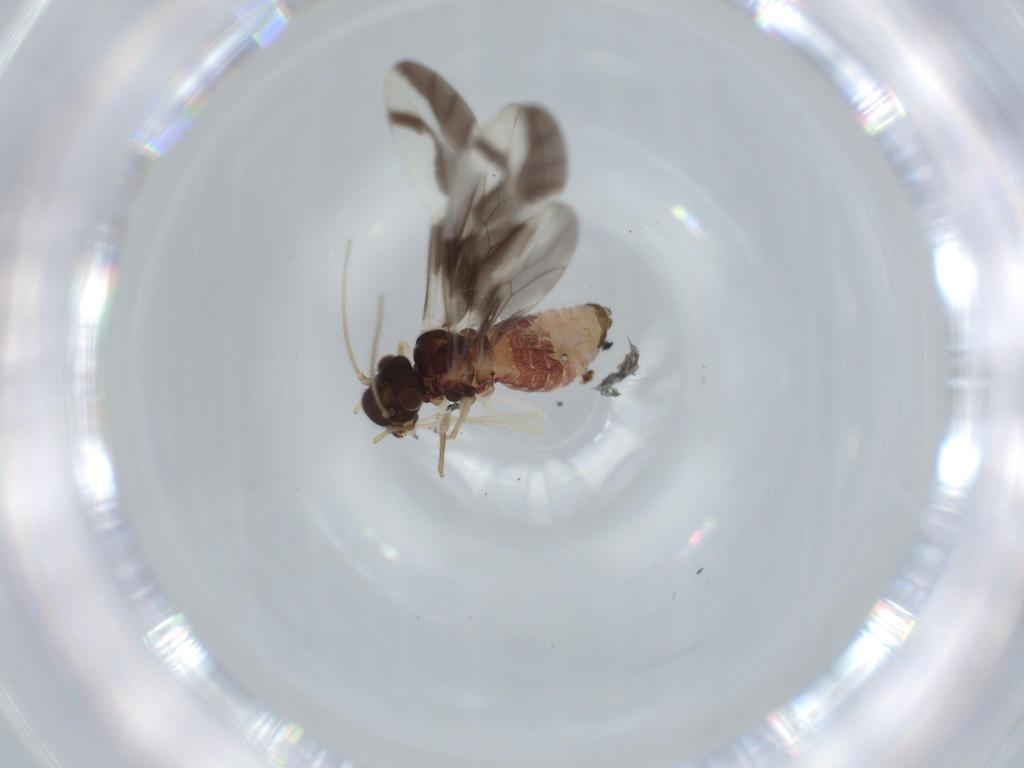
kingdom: Animalia
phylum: Arthropoda
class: Insecta
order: Psocodea
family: Caeciliusidae
